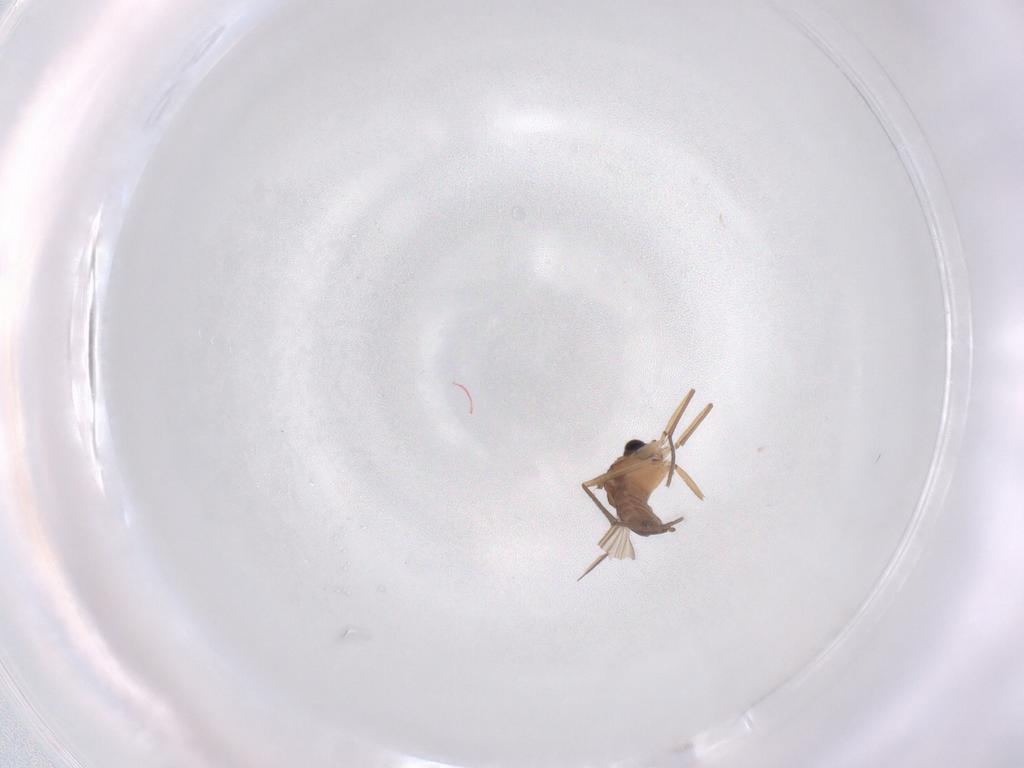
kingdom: Animalia
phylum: Arthropoda
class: Insecta
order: Diptera
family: Sciaridae
